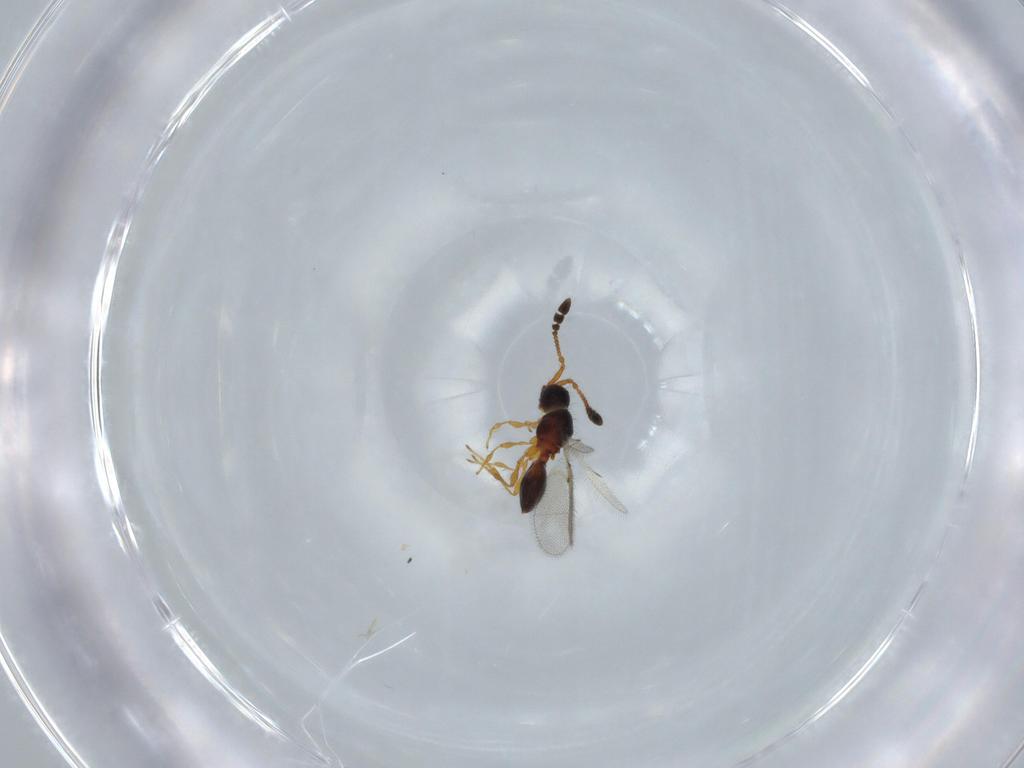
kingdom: Animalia
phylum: Arthropoda
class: Insecta
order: Hymenoptera
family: Diapriidae
